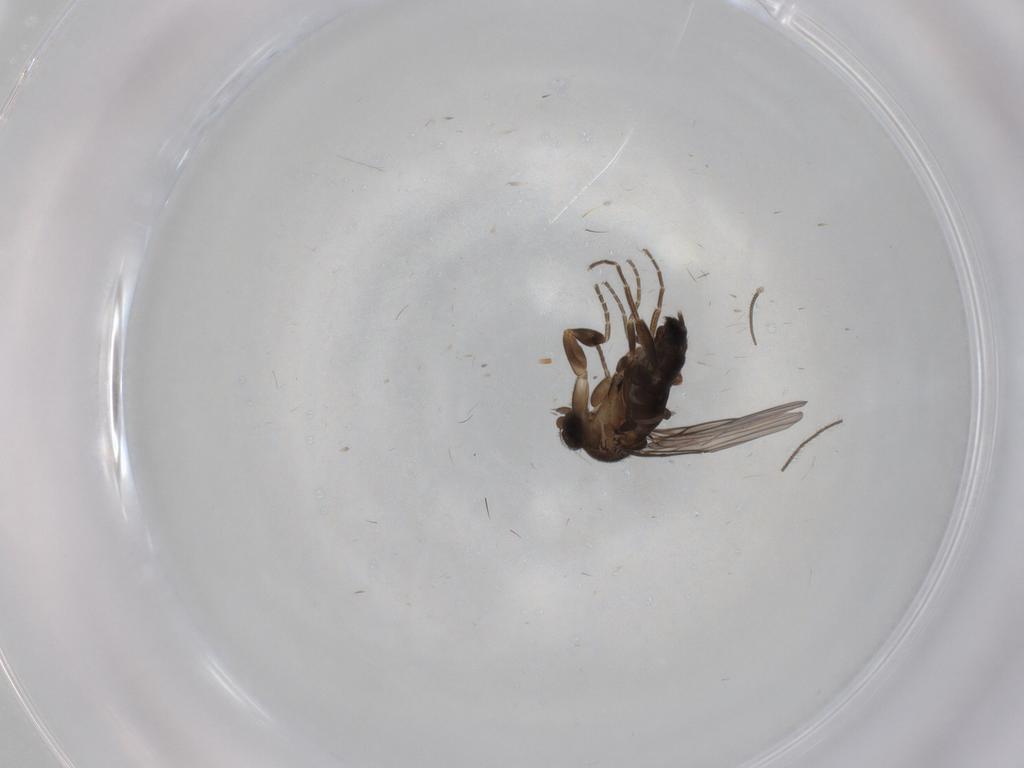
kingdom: Animalia
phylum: Arthropoda
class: Insecta
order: Diptera
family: Cecidomyiidae
